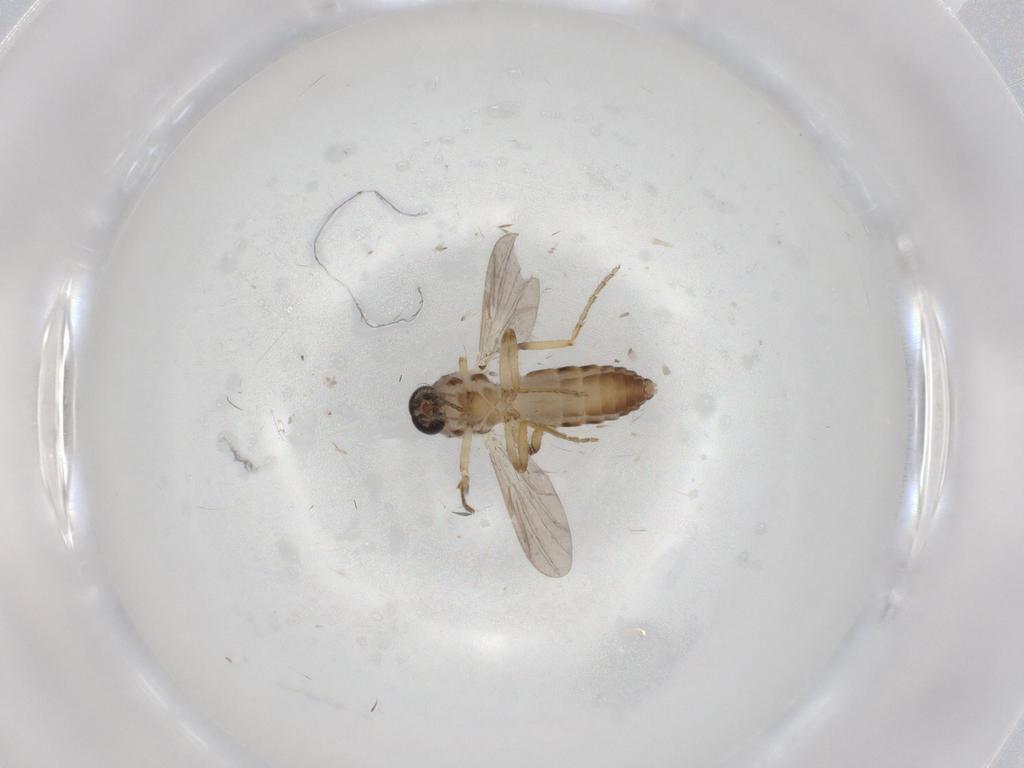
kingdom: Animalia
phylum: Arthropoda
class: Insecta
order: Diptera
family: Ceratopogonidae
